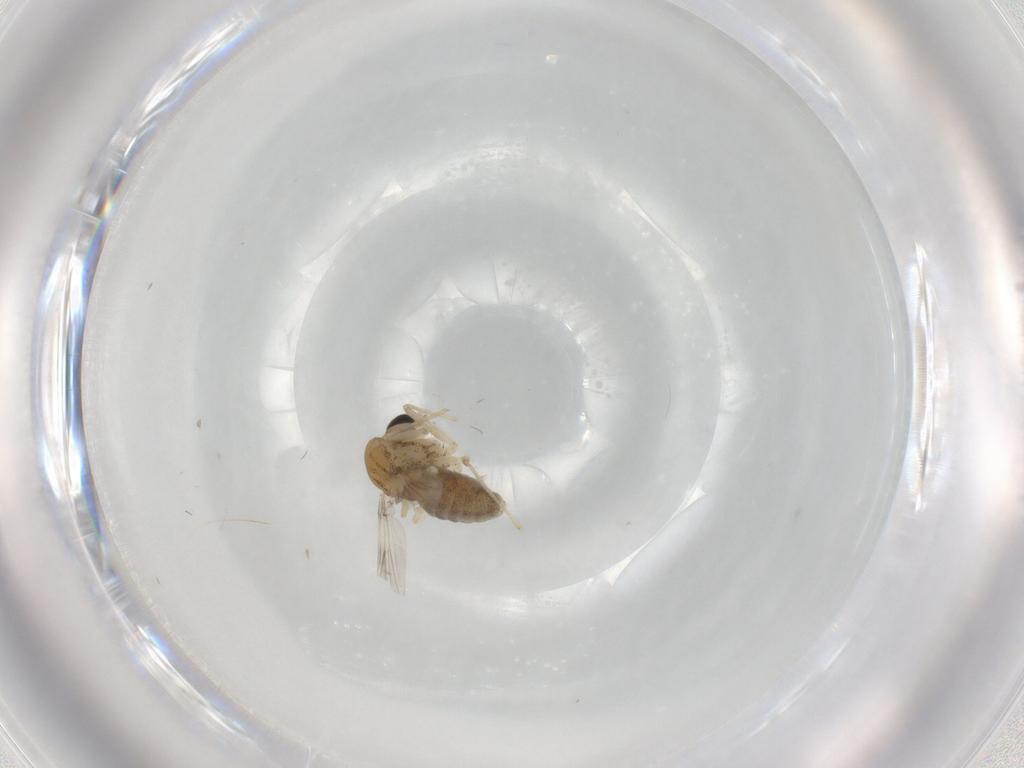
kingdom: Animalia
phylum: Arthropoda
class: Insecta
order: Diptera
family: Chironomidae
